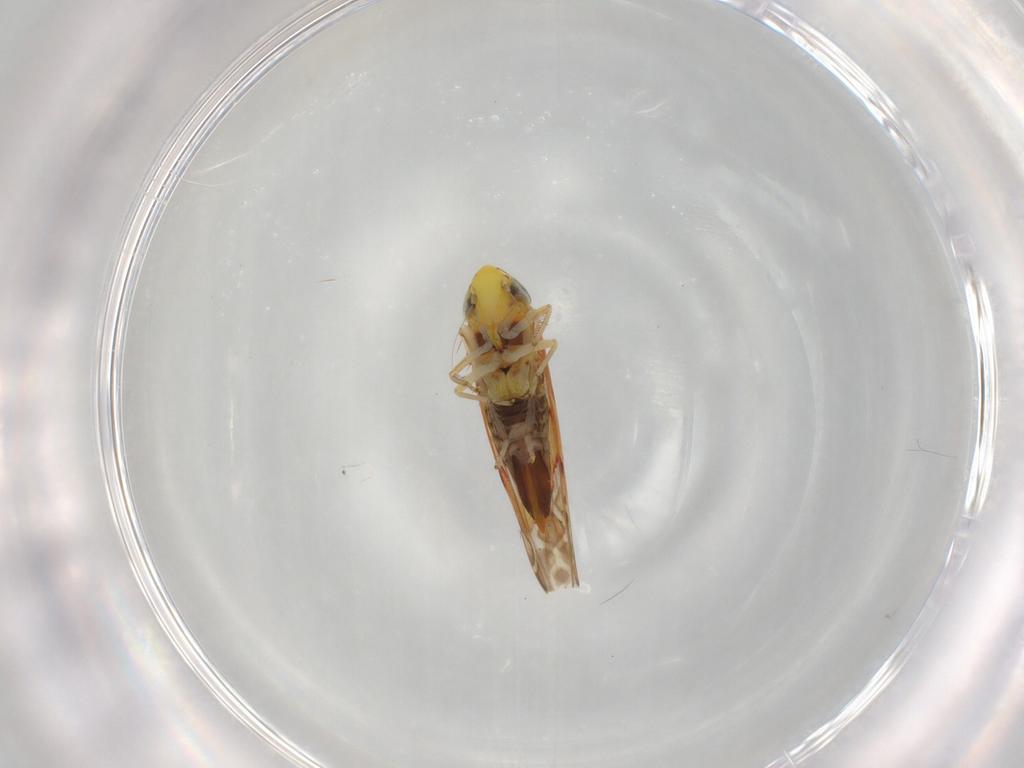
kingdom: Animalia
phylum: Arthropoda
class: Insecta
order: Hemiptera
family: Cicadellidae
